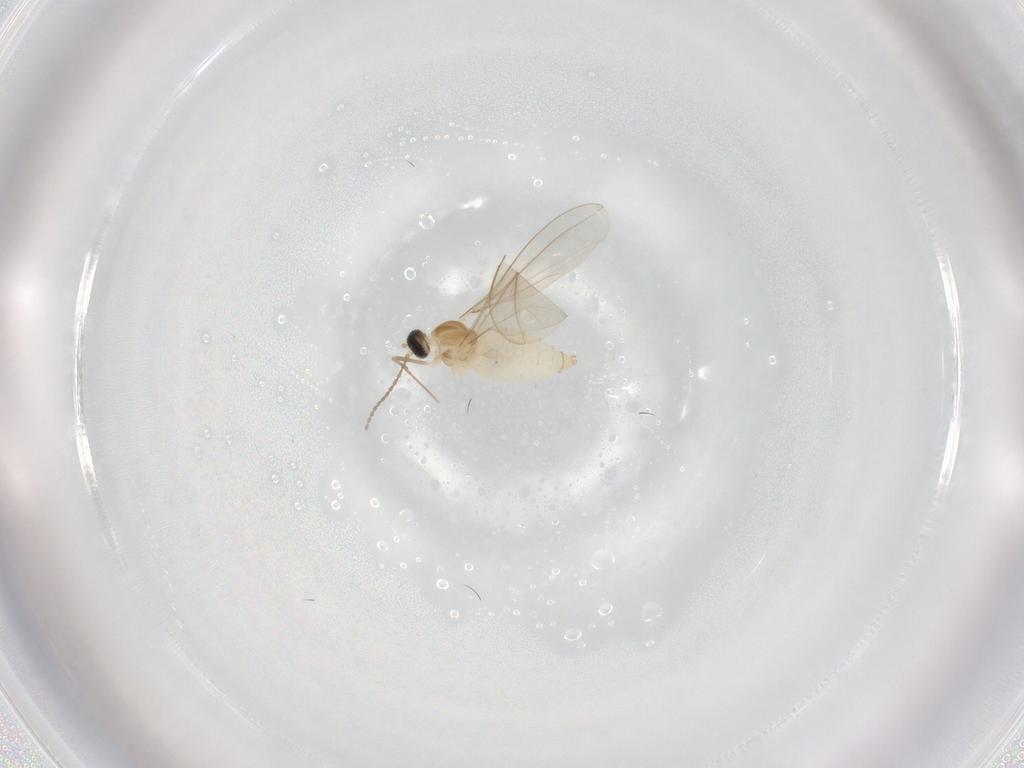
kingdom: Animalia
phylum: Arthropoda
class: Insecta
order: Diptera
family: Cecidomyiidae
